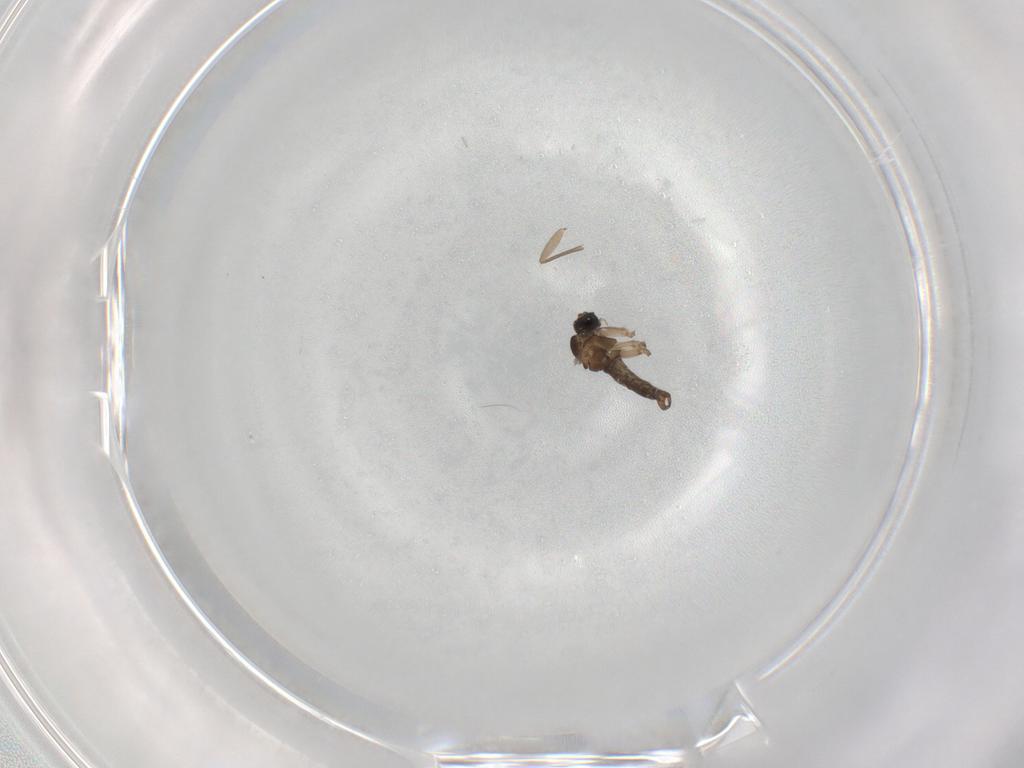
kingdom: Animalia
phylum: Arthropoda
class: Insecta
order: Diptera
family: Sciaridae
